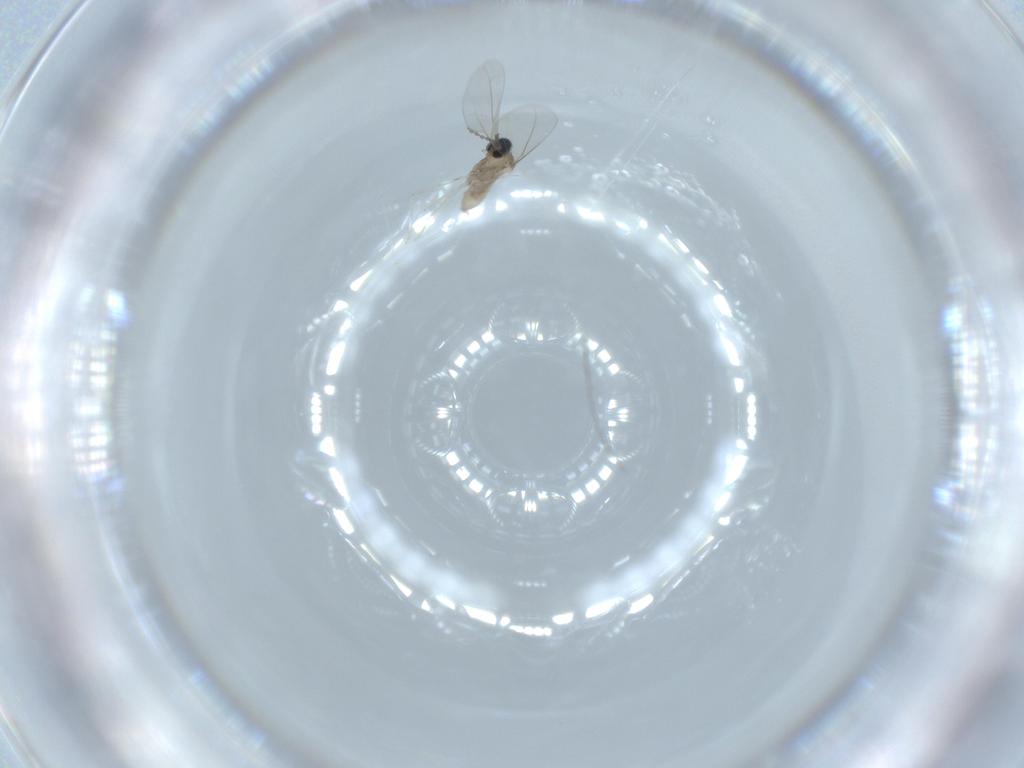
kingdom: Animalia
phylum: Arthropoda
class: Insecta
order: Diptera
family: Cecidomyiidae
